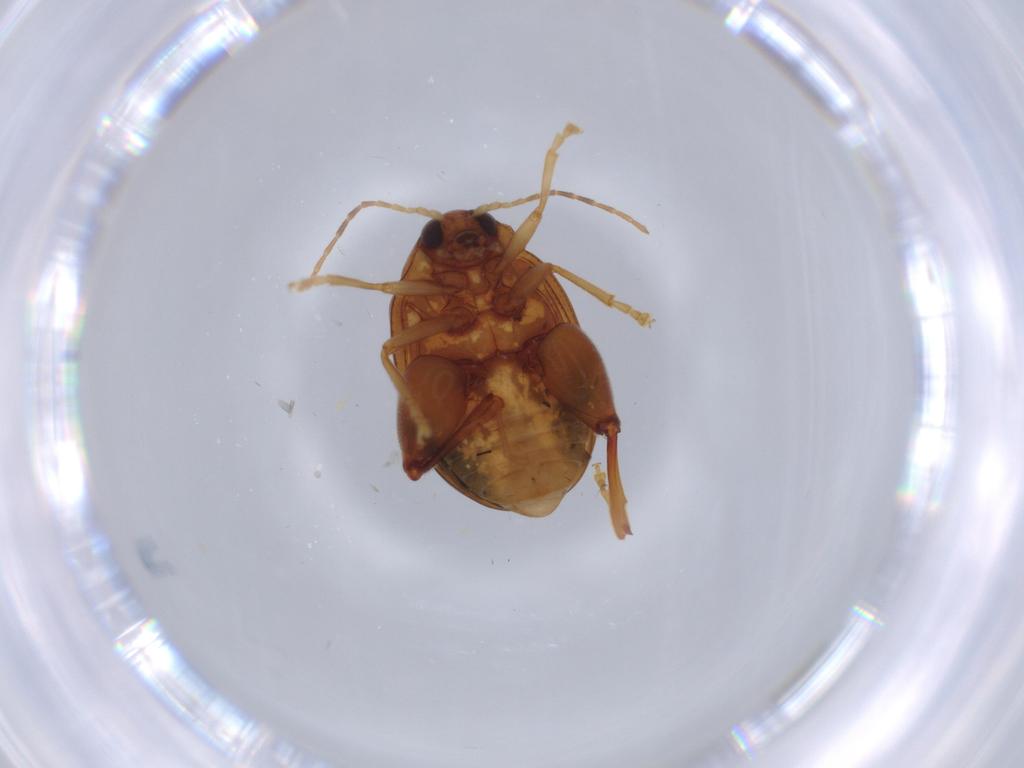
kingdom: Animalia
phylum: Arthropoda
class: Insecta
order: Coleoptera
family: Chrysomelidae
